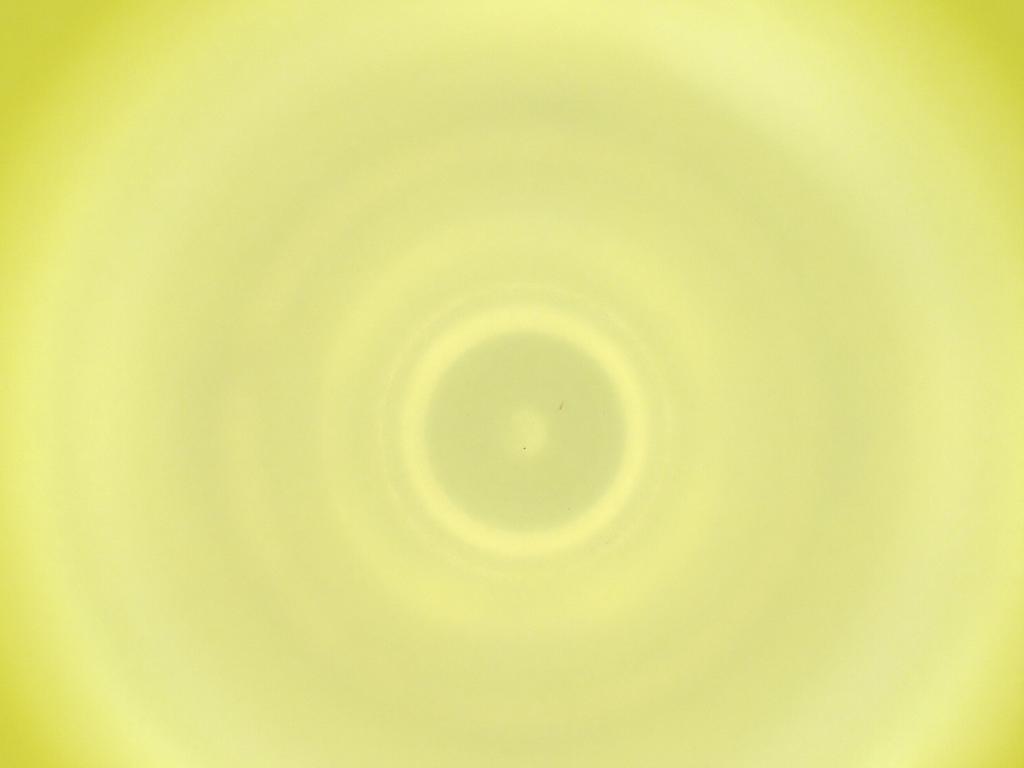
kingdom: Animalia
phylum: Arthropoda
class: Insecta
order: Diptera
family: Cecidomyiidae
